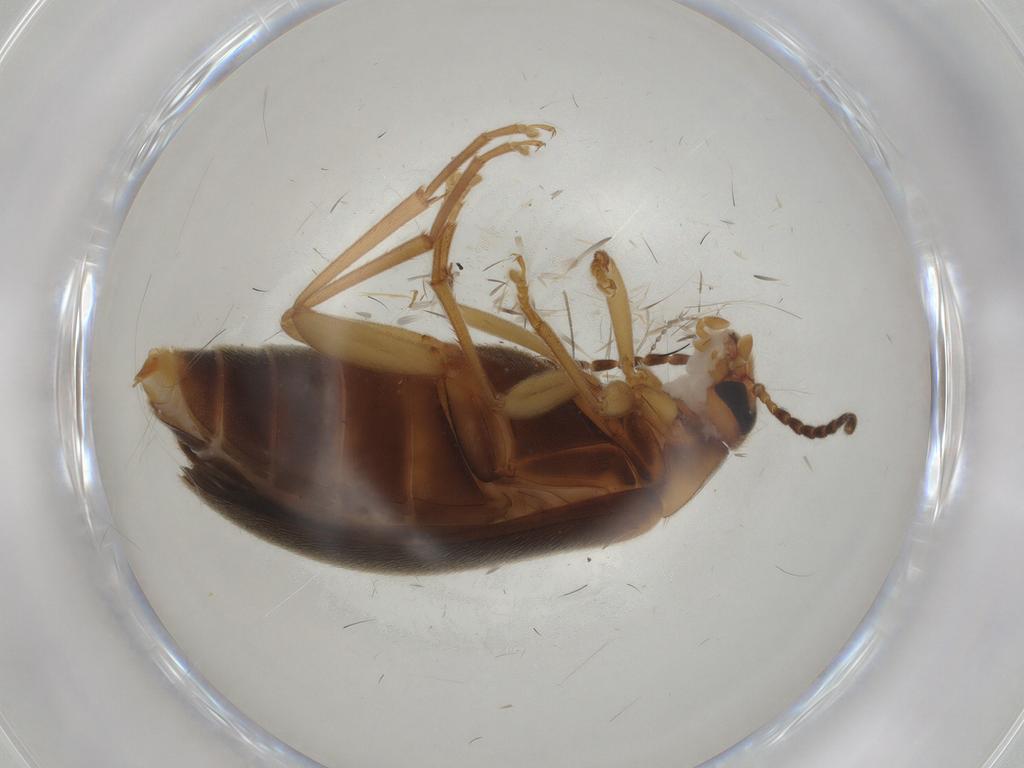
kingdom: Animalia
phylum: Arthropoda
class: Insecta
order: Coleoptera
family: Scraptiidae
